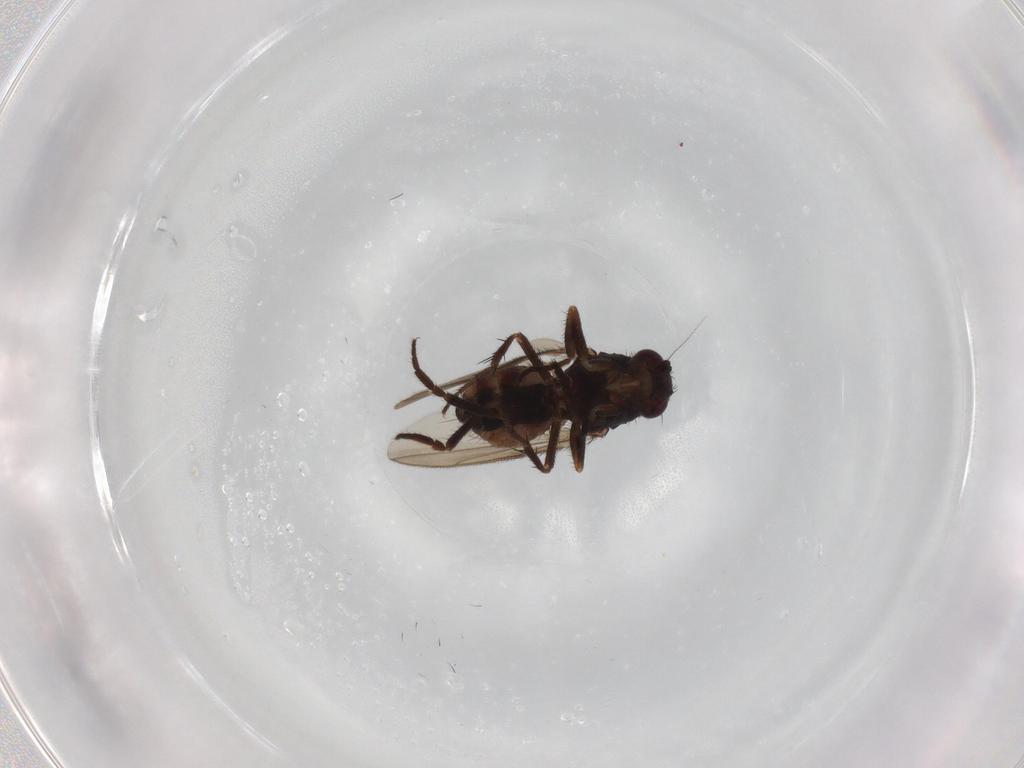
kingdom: Animalia
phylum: Arthropoda
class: Insecta
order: Diptera
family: Sphaeroceridae
